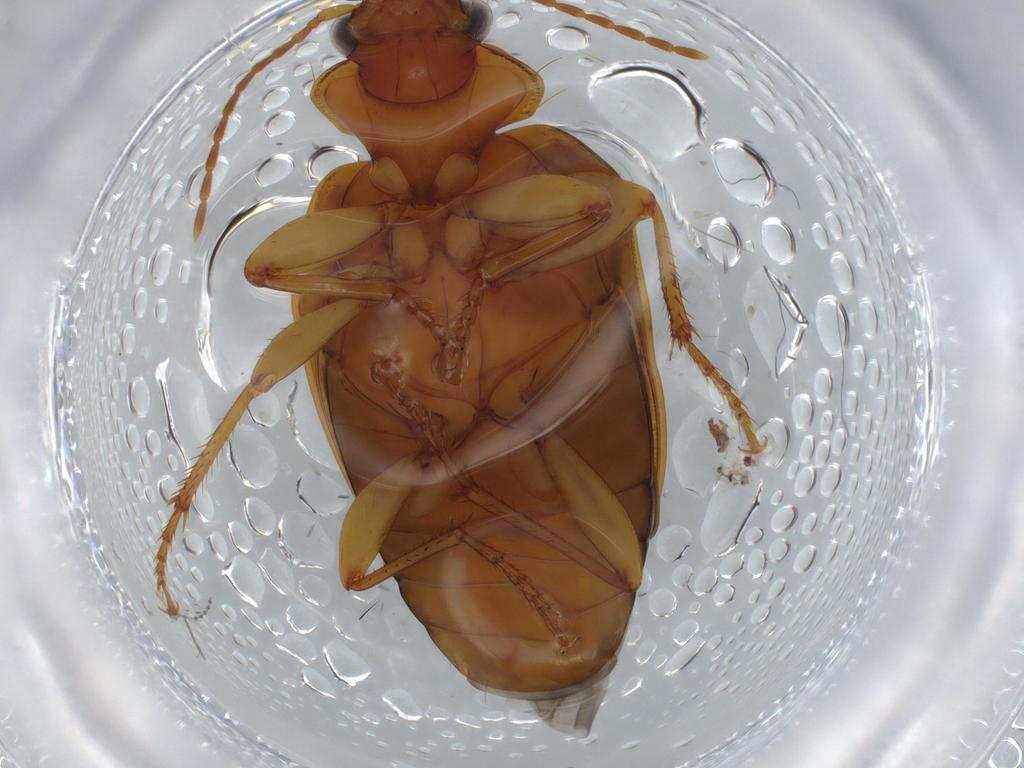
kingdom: Animalia
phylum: Arthropoda
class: Insecta
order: Coleoptera
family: Carabidae
